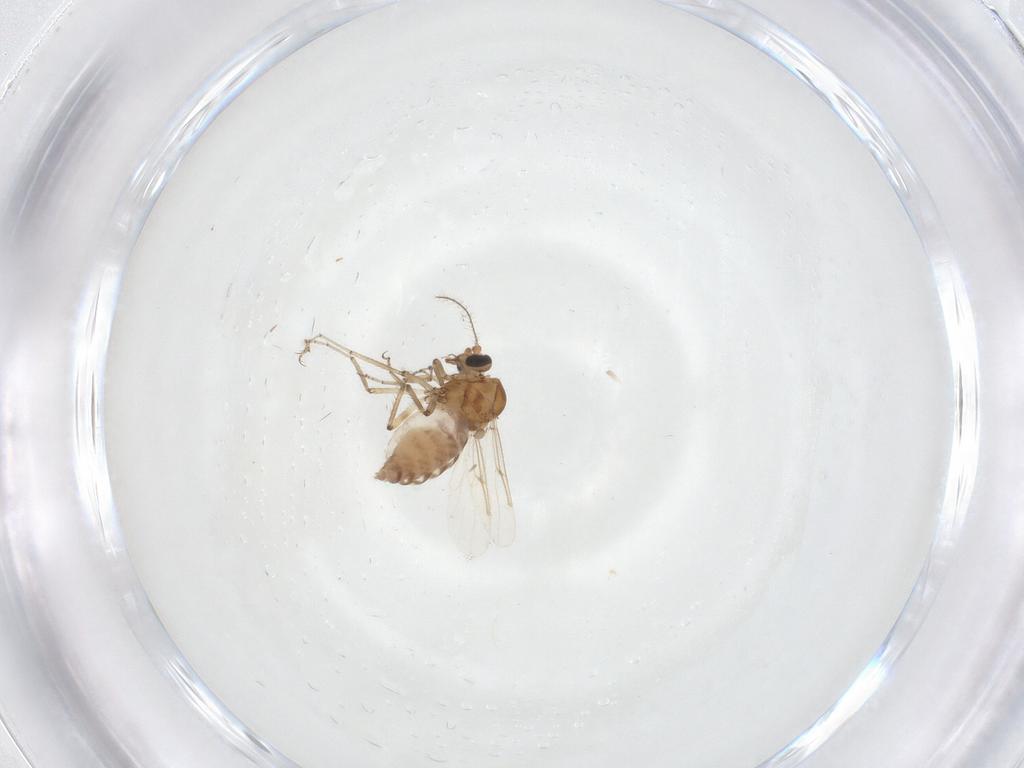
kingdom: Animalia
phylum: Arthropoda
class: Insecta
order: Diptera
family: Ceratopogonidae
